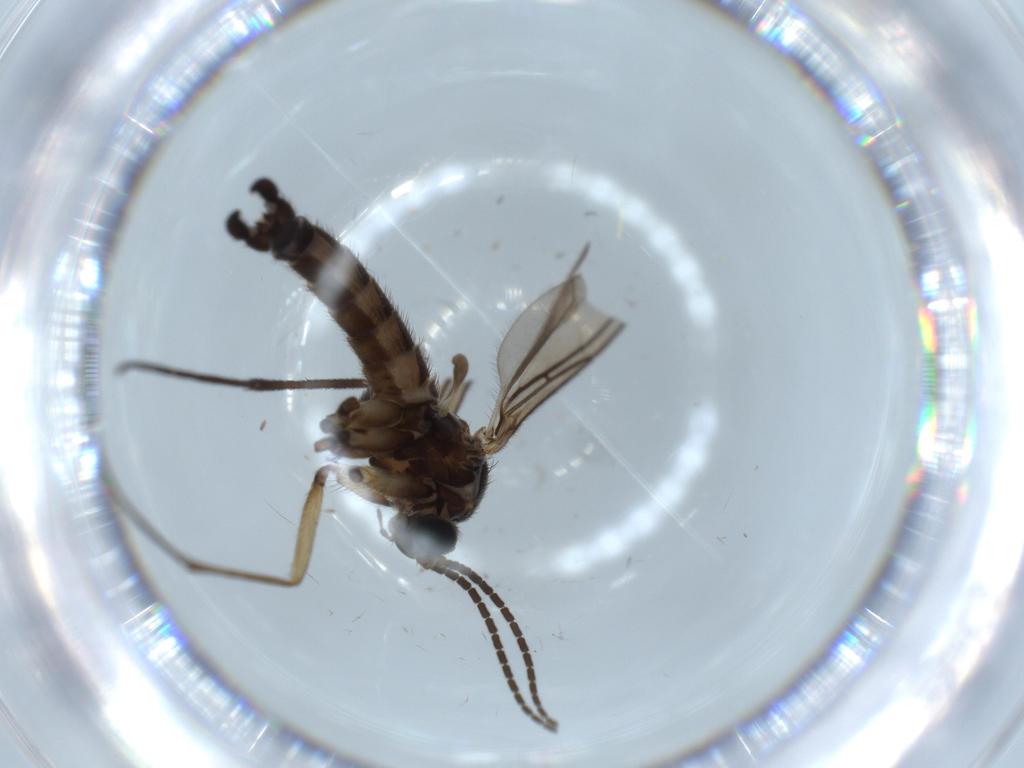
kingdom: Animalia
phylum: Arthropoda
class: Insecta
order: Diptera
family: Sciaridae
